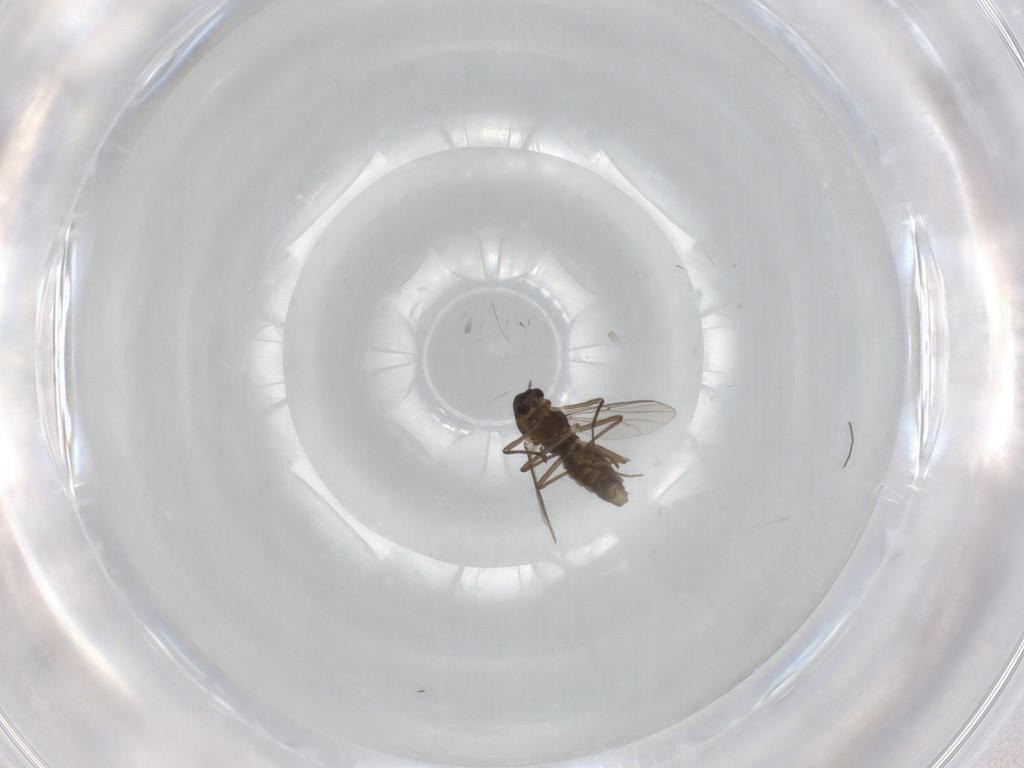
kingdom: Animalia
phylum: Arthropoda
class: Insecta
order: Diptera
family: Chironomidae
